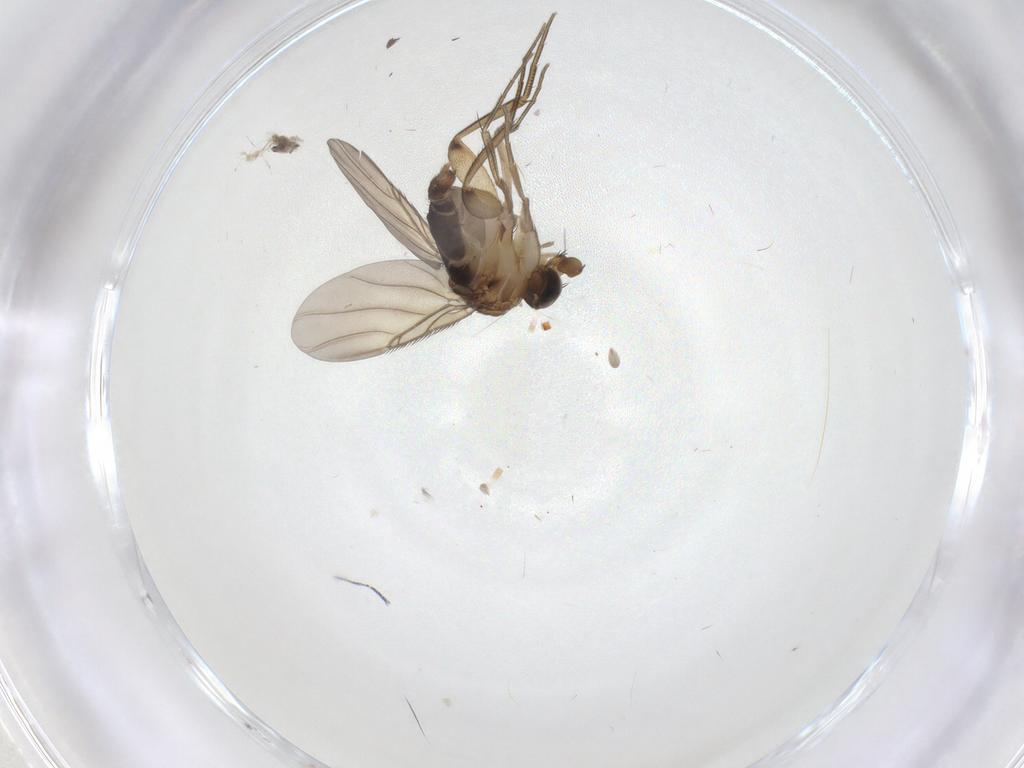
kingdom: Animalia
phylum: Arthropoda
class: Insecta
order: Diptera
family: Phoridae
